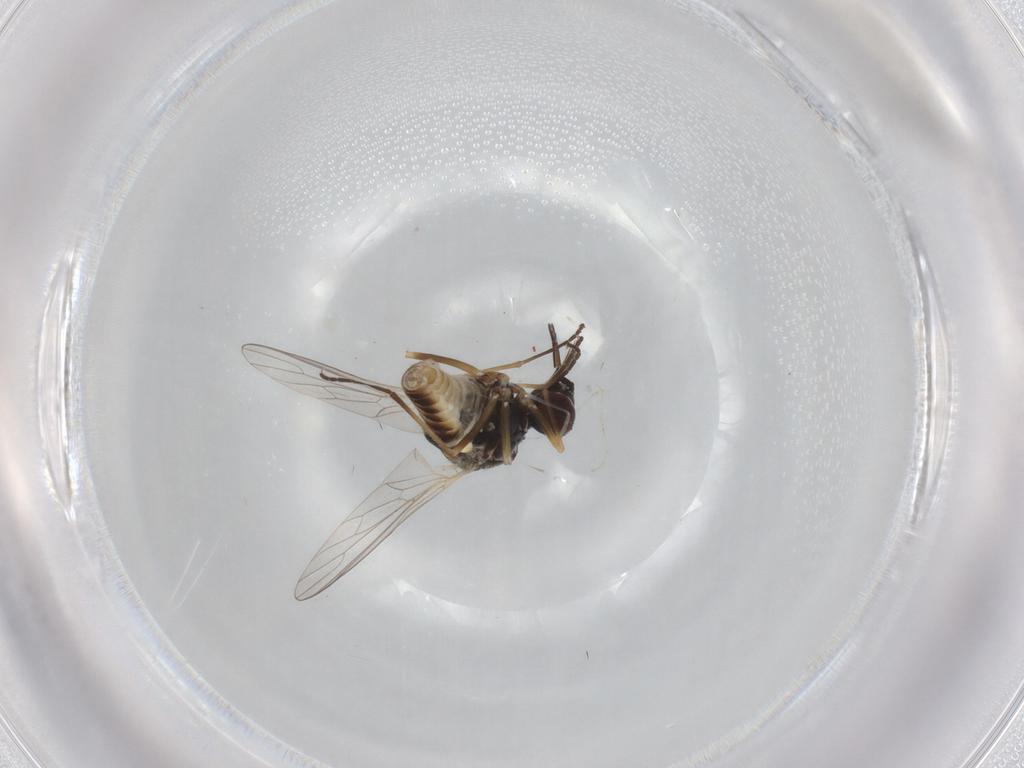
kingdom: Animalia
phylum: Arthropoda
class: Insecta
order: Diptera
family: Bombyliidae
